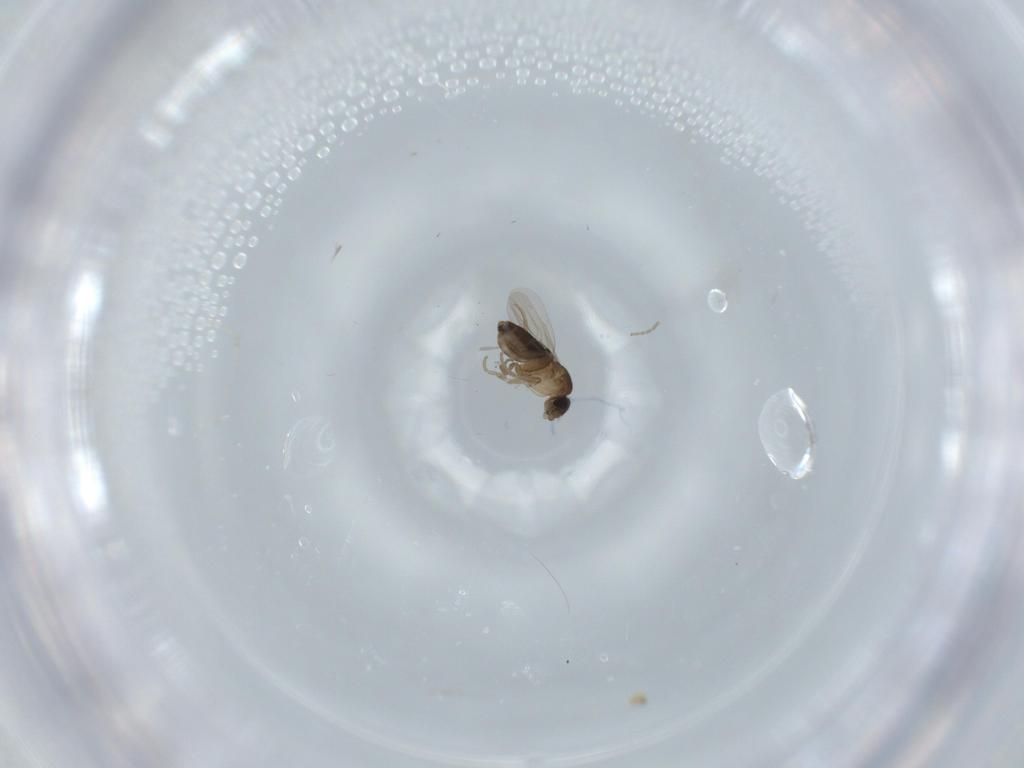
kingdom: Animalia
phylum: Arthropoda
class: Insecta
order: Diptera
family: Phoridae
